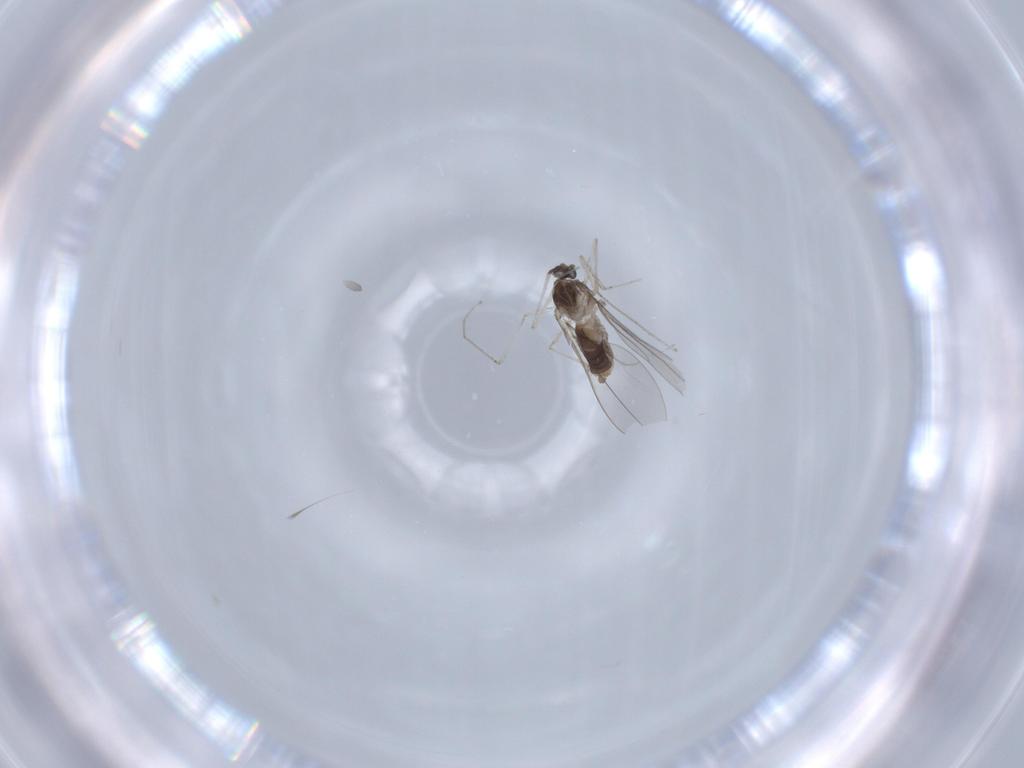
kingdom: Animalia
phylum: Arthropoda
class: Insecta
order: Diptera
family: Cecidomyiidae
